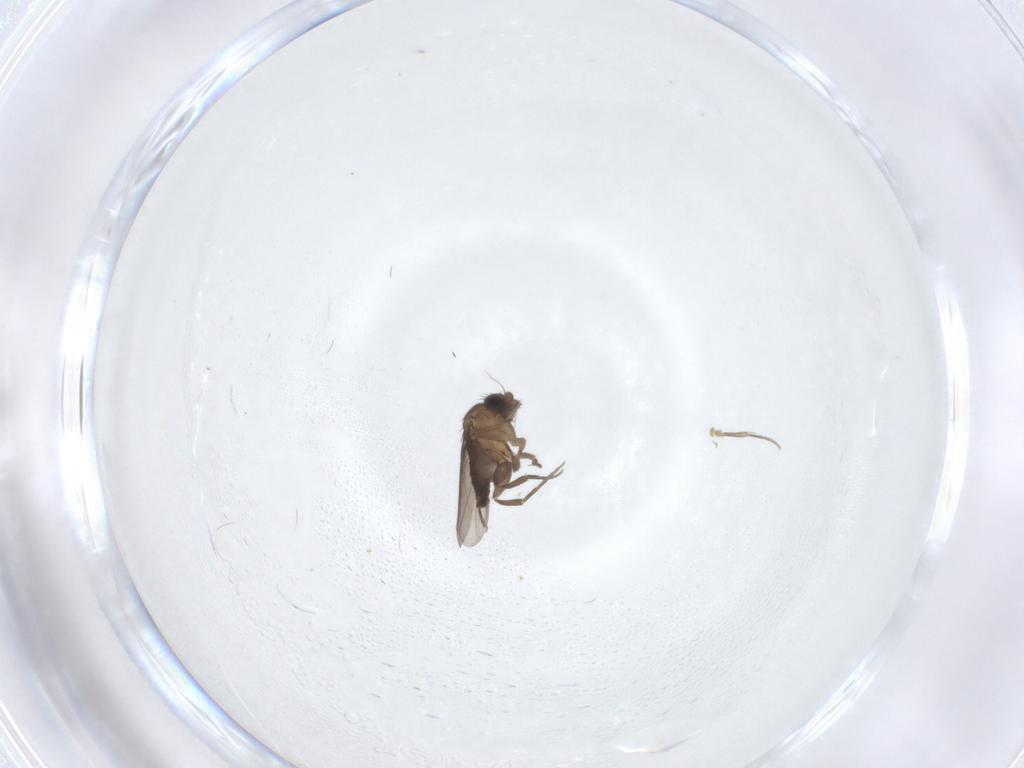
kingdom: Animalia
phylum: Arthropoda
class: Insecta
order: Diptera
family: Phoridae
